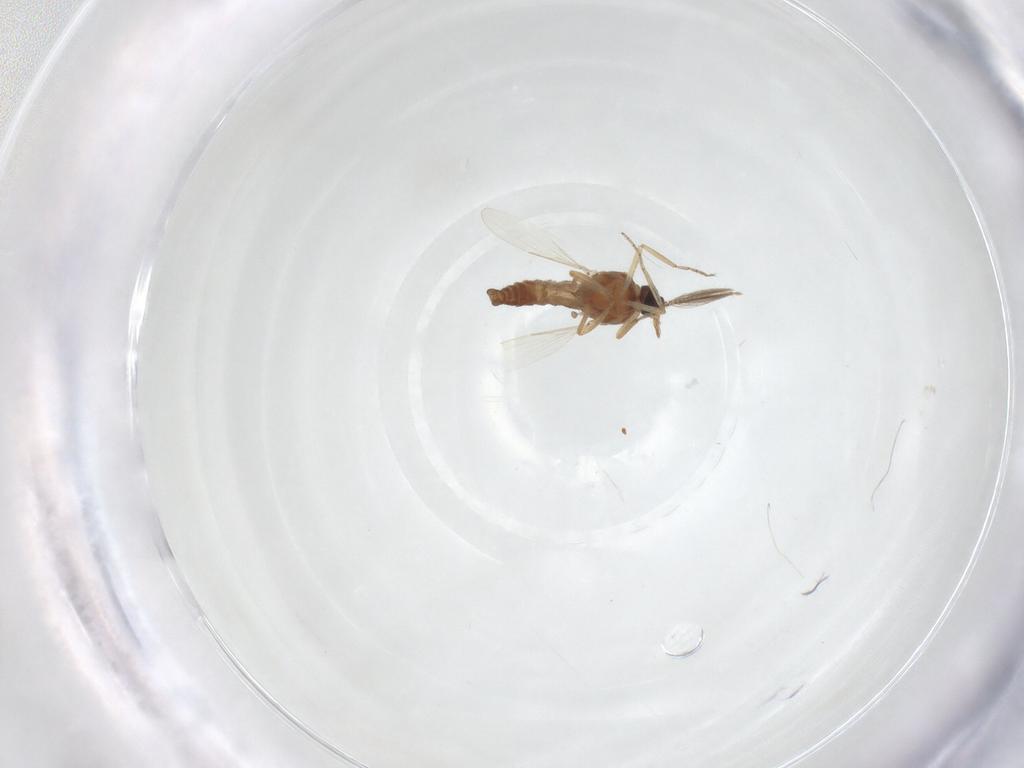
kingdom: Animalia
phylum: Arthropoda
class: Insecta
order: Diptera
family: Ceratopogonidae
